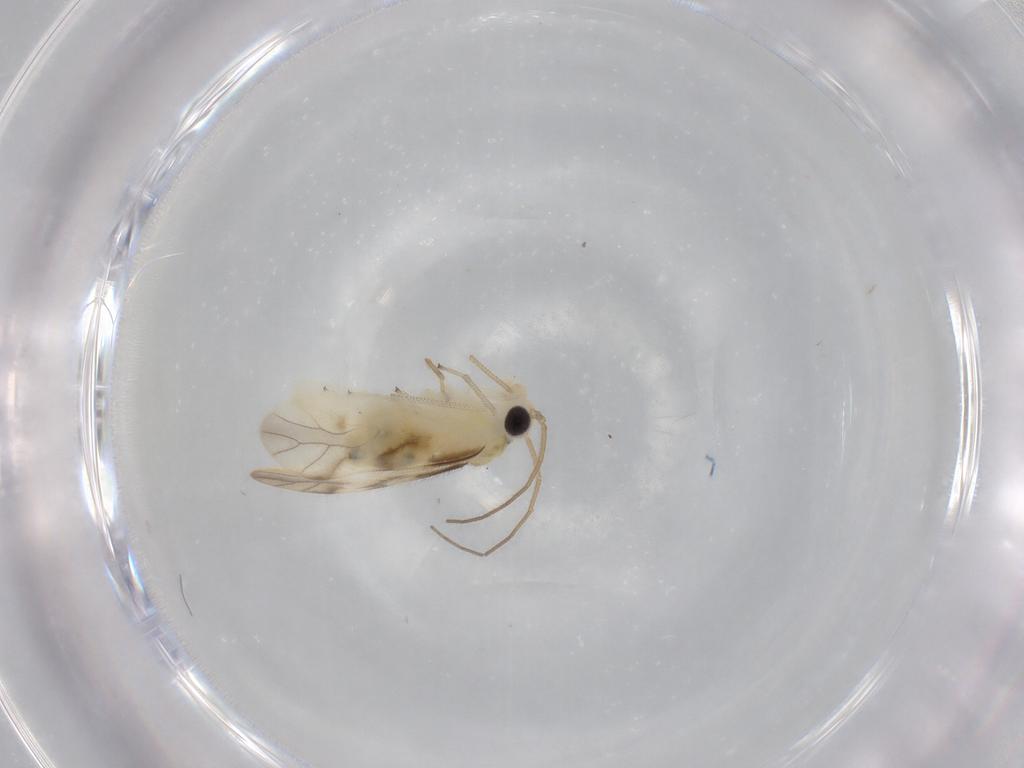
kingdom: Animalia
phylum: Arthropoda
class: Insecta
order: Psocodea
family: Caeciliusidae
